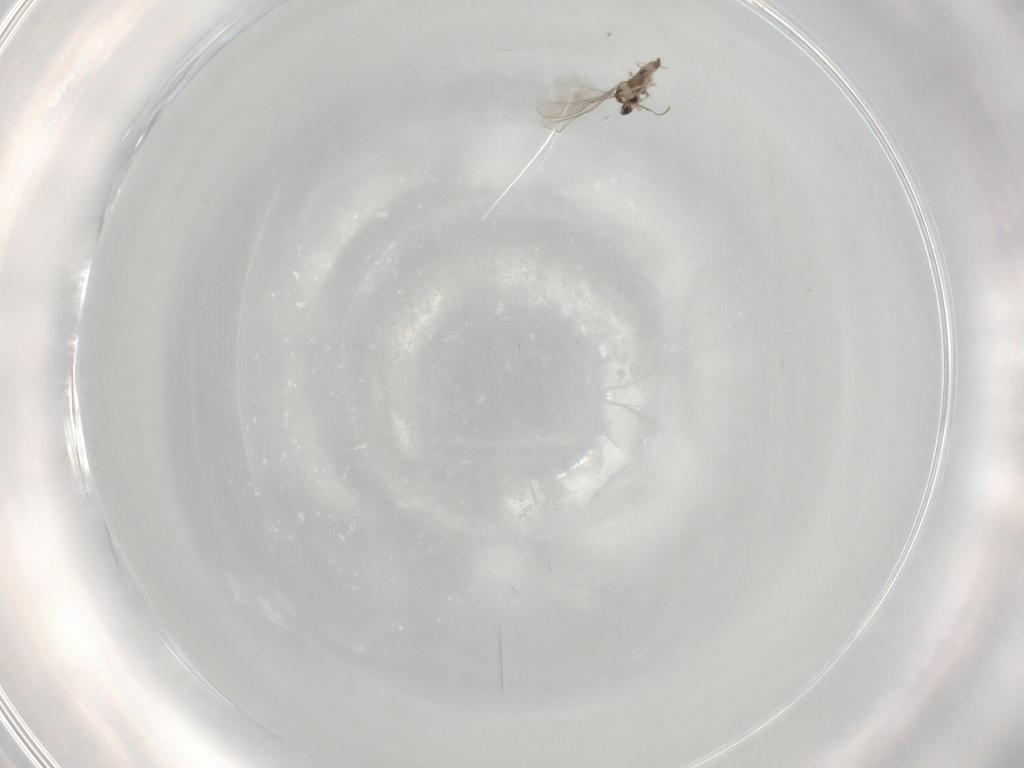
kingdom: Animalia
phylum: Arthropoda
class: Insecta
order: Diptera
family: Cecidomyiidae
